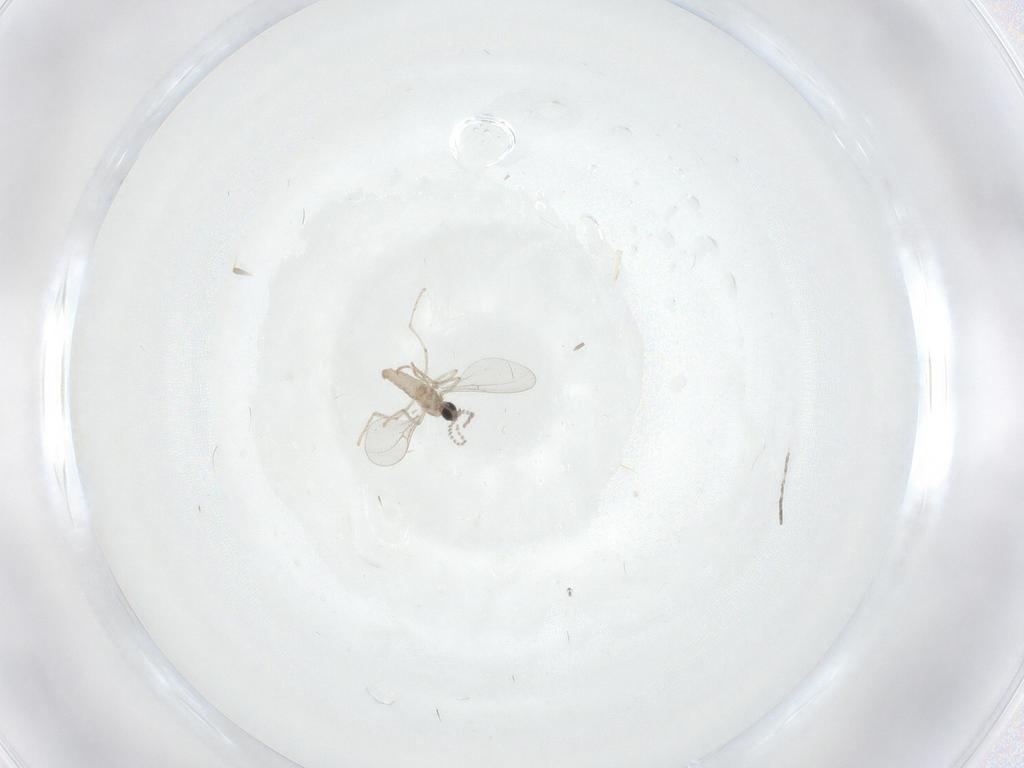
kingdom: Animalia
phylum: Arthropoda
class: Insecta
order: Diptera
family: Cecidomyiidae
